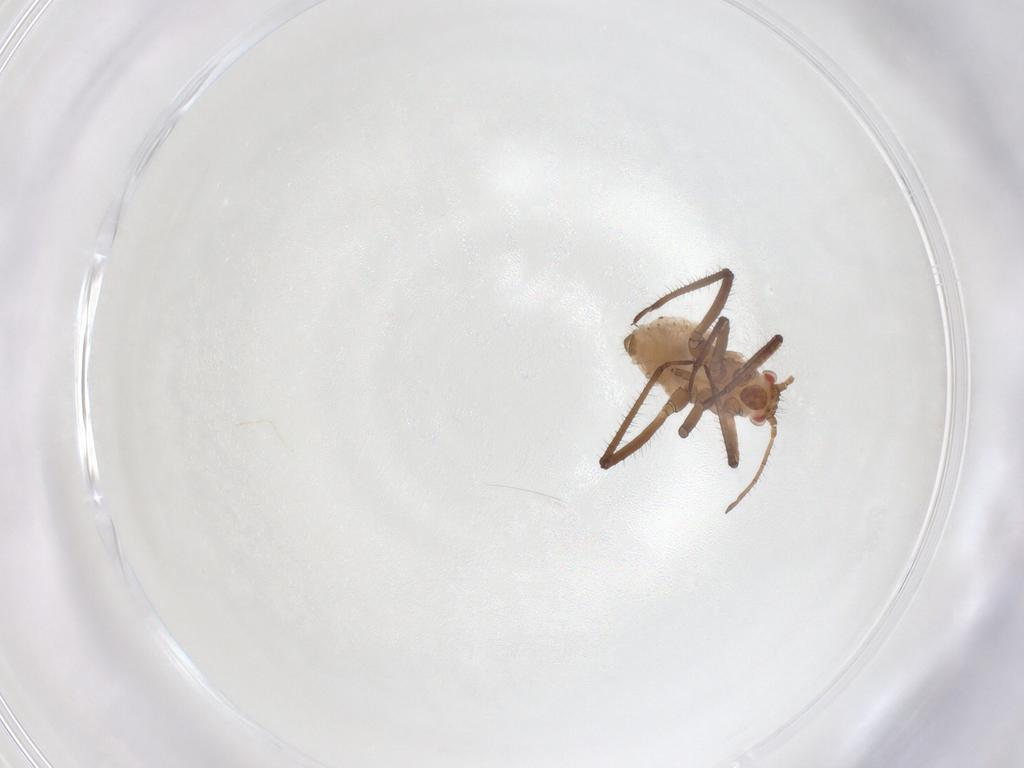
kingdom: Animalia
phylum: Arthropoda
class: Insecta
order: Hemiptera
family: Aphididae
